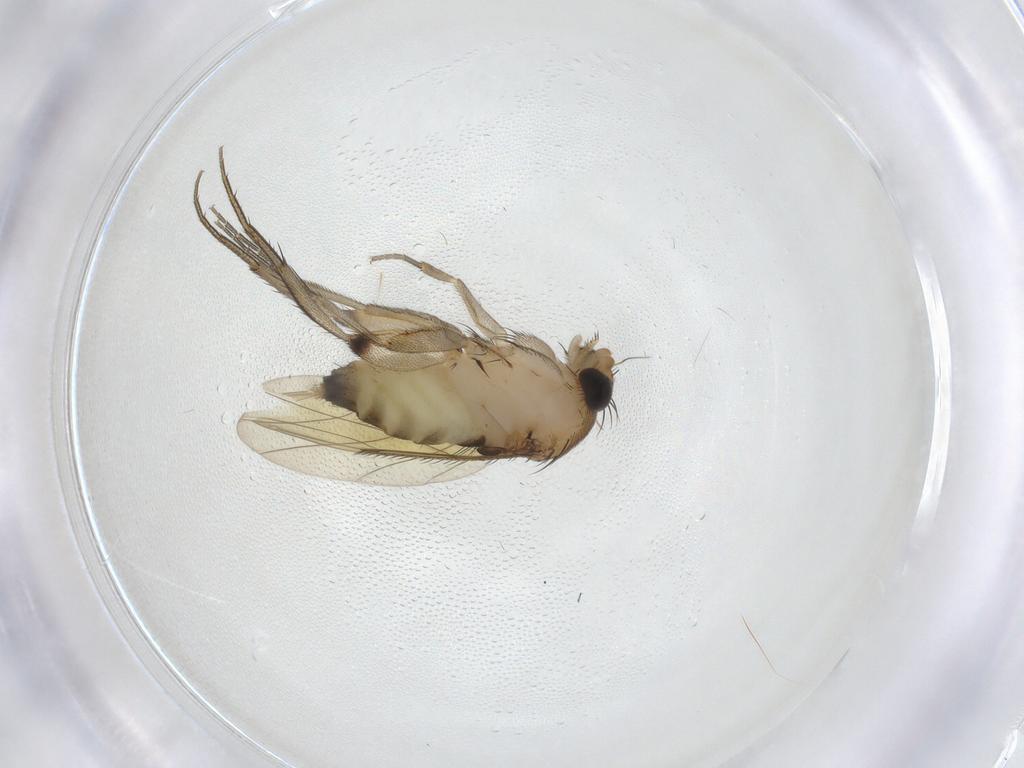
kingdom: Animalia
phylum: Arthropoda
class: Insecta
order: Diptera
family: Phoridae
